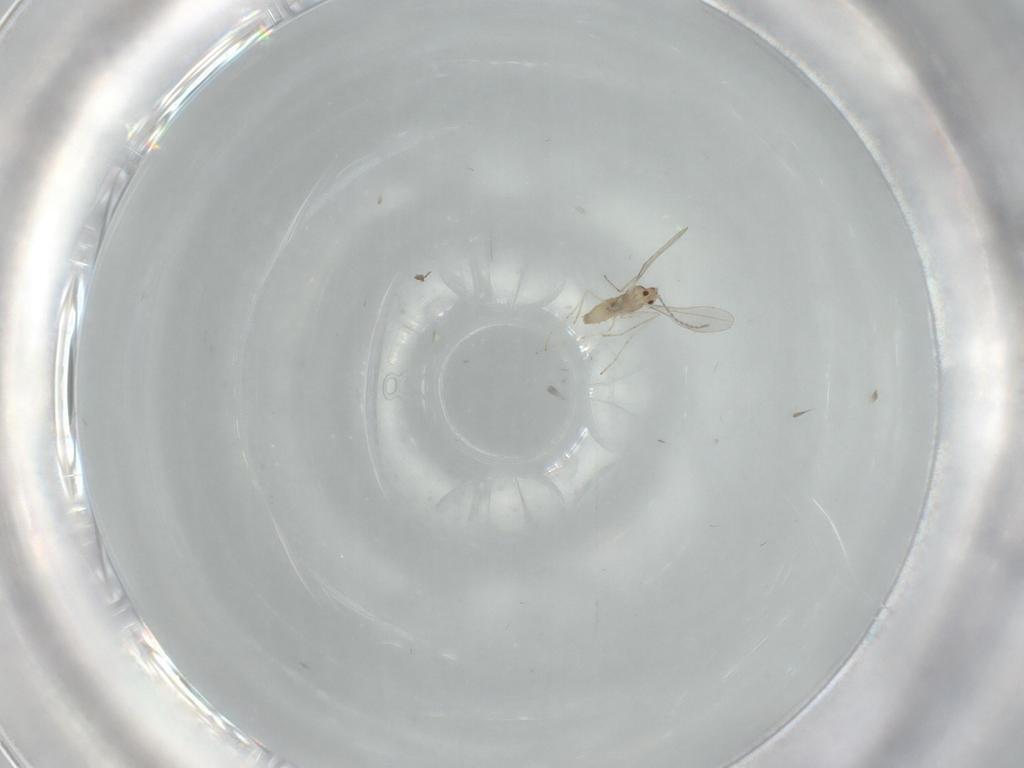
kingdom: Animalia
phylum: Arthropoda
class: Insecta
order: Diptera
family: Cecidomyiidae
